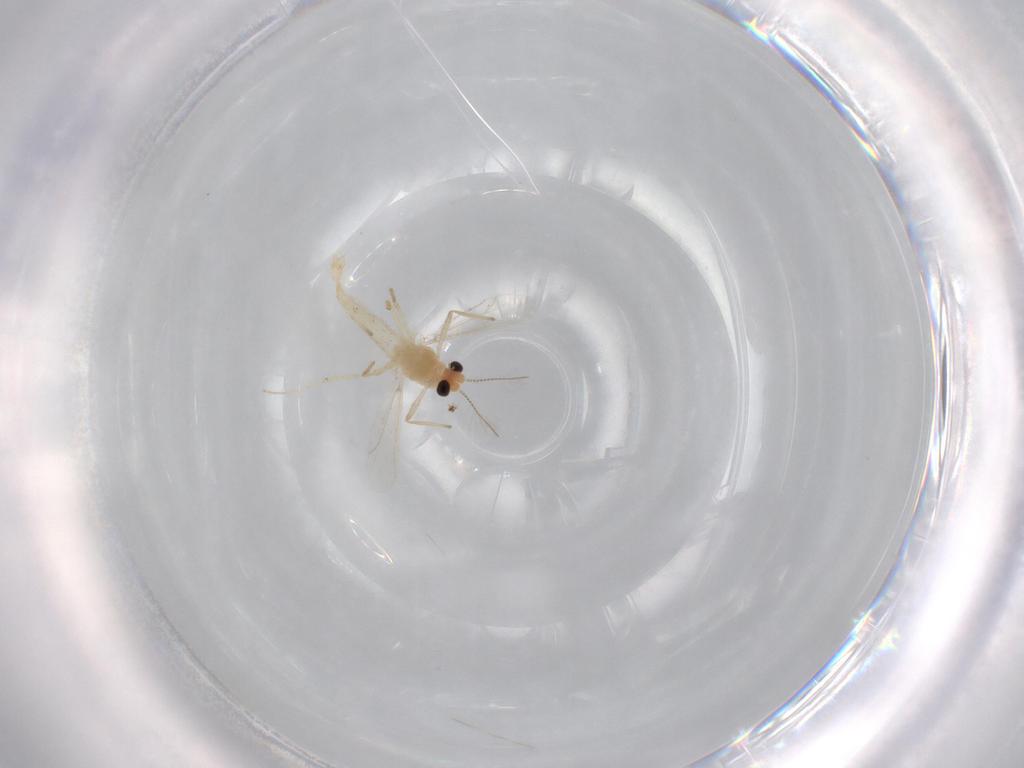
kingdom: Animalia
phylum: Arthropoda
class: Insecta
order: Diptera
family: Chironomidae
